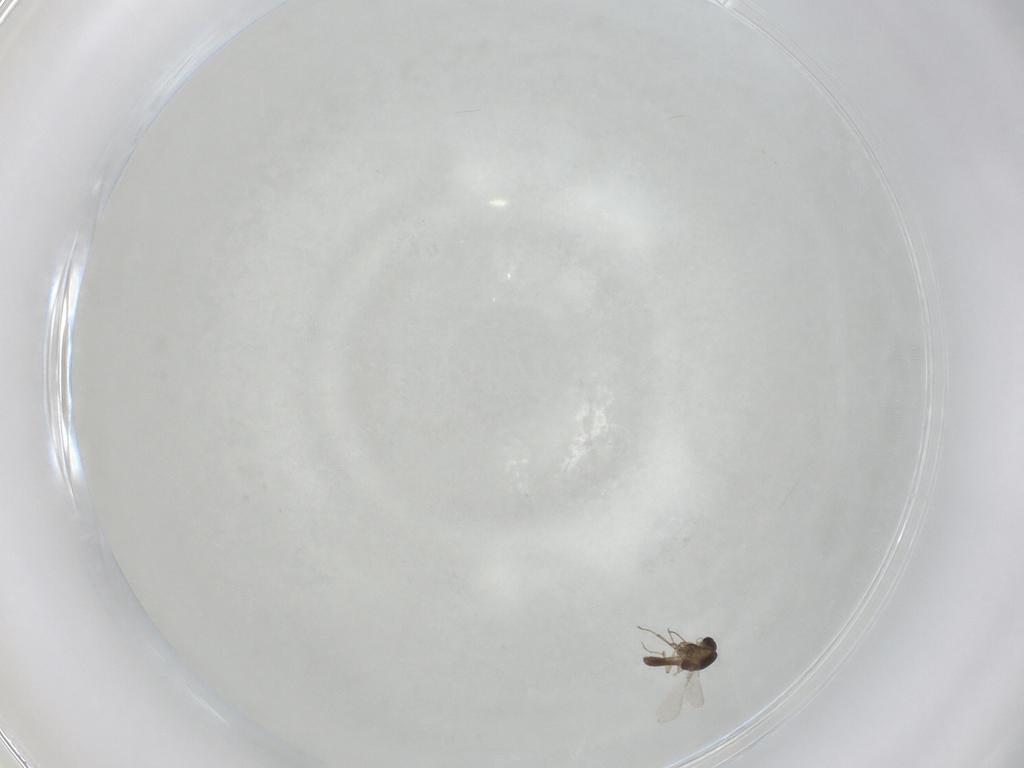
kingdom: Animalia
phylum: Arthropoda
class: Insecta
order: Diptera
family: Chironomidae
